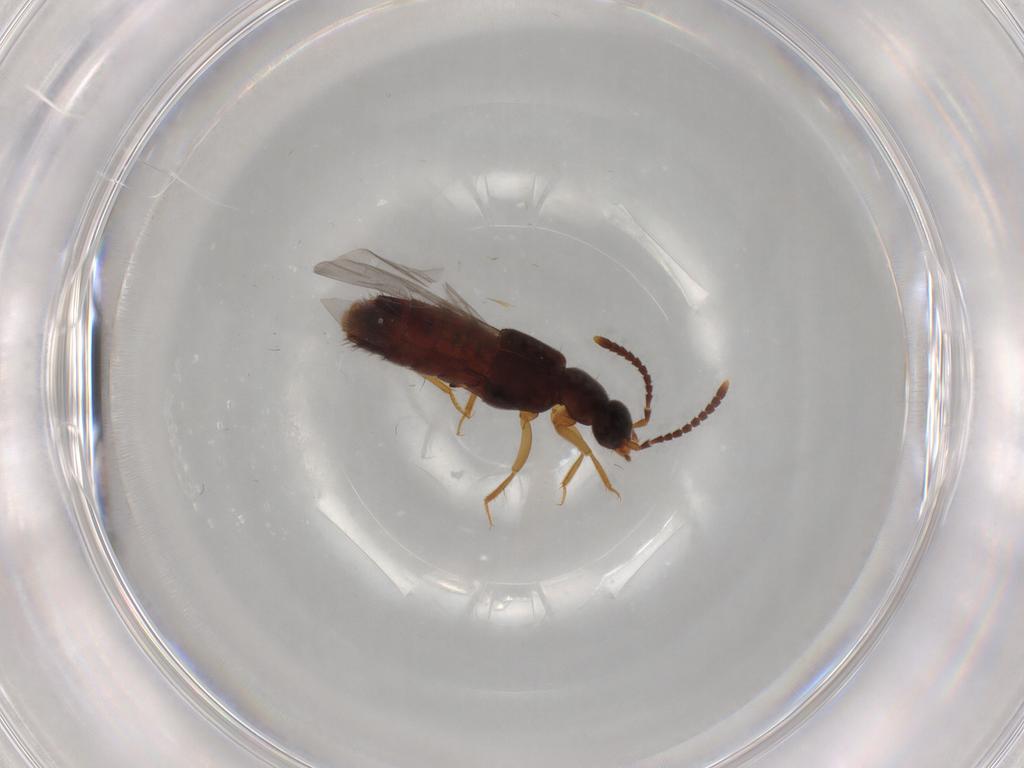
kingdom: Animalia
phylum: Arthropoda
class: Insecta
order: Coleoptera
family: Staphylinidae
